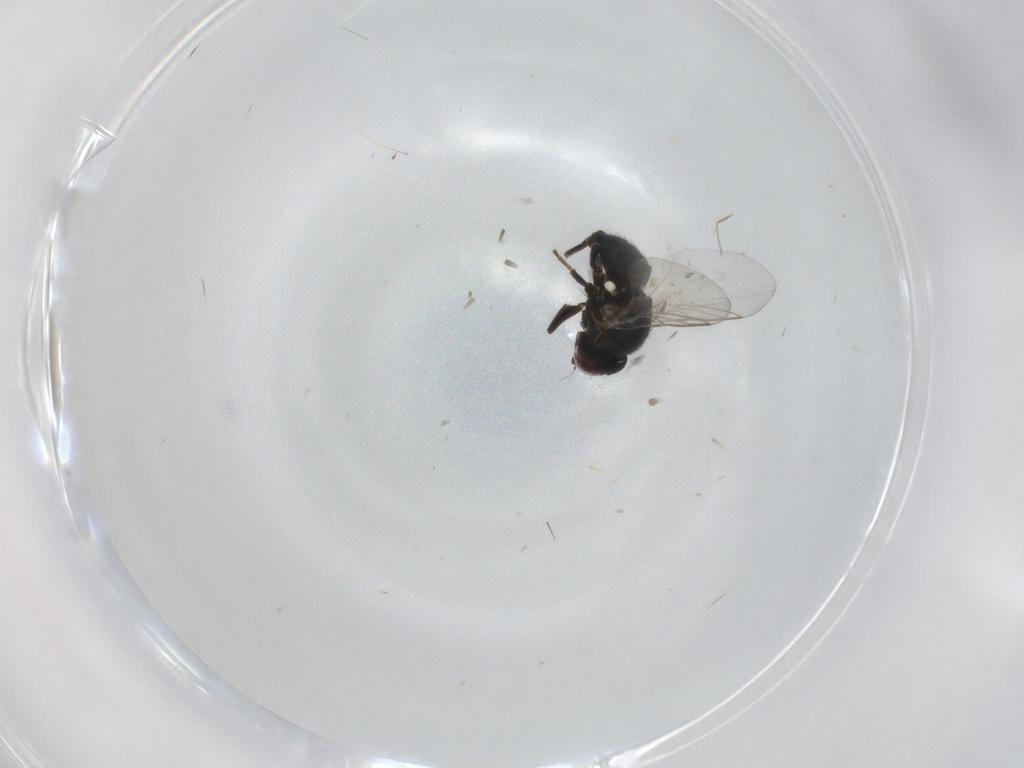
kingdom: Animalia
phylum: Arthropoda
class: Insecta
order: Diptera
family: Agromyzidae
